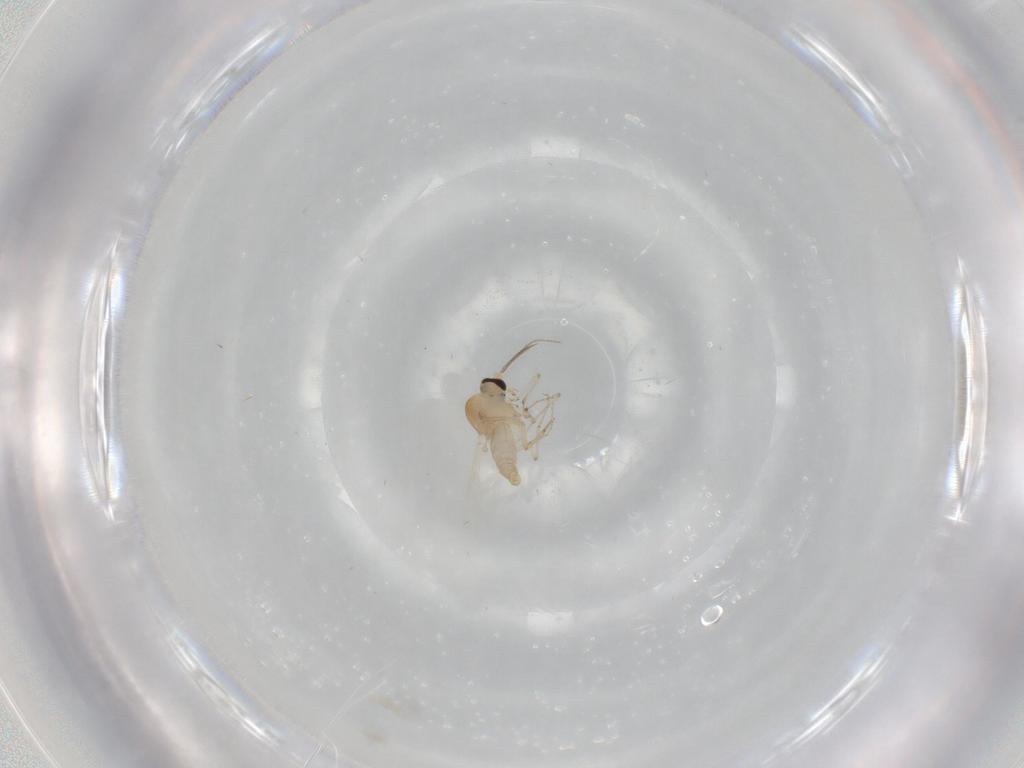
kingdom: Animalia
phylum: Arthropoda
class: Insecta
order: Diptera
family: Ceratopogonidae
